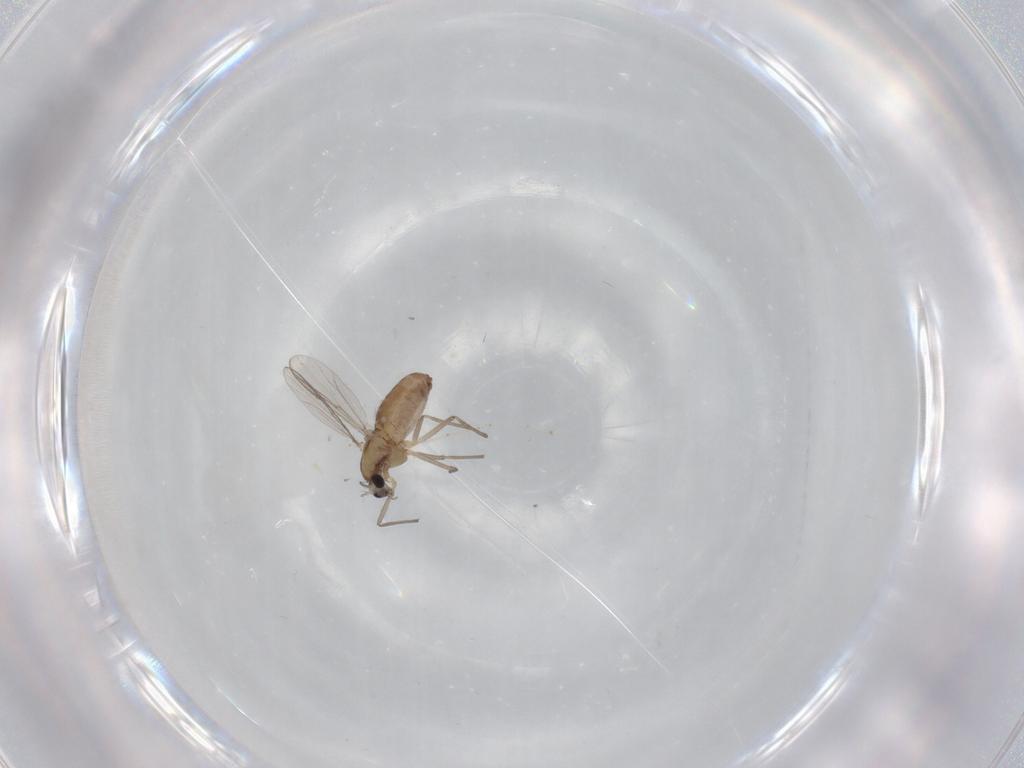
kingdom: Animalia
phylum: Arthropoda
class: Insecta
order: Diptera
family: Chironomidae
